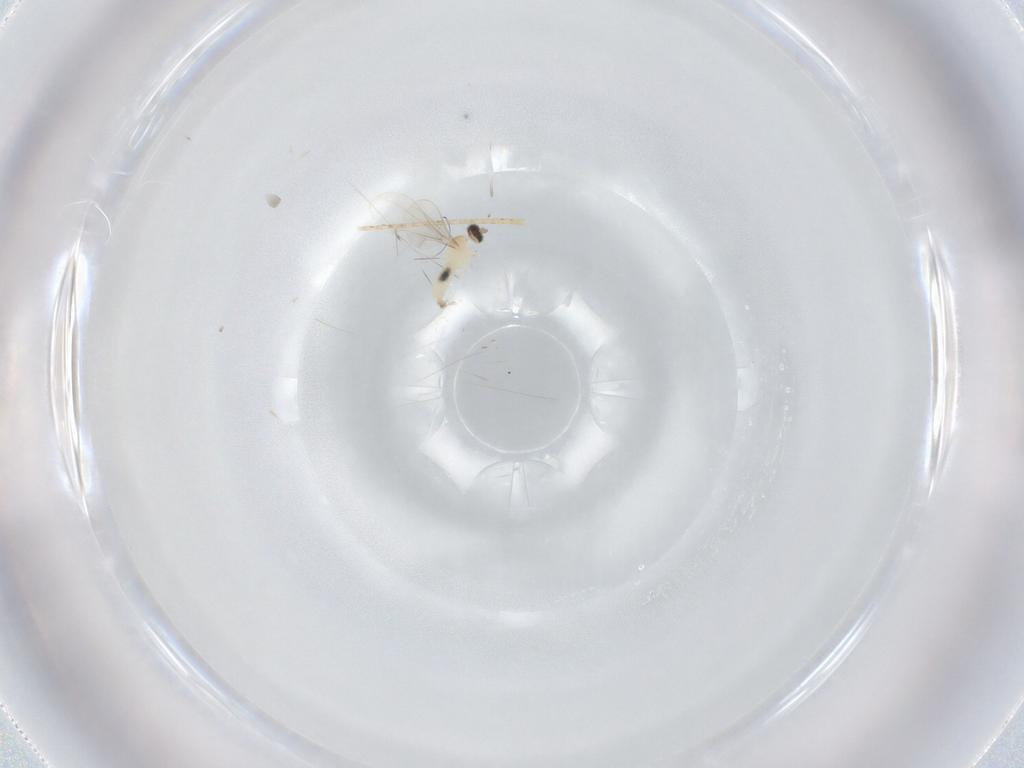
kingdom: Animalia
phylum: Arthropoda
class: Insecta
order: Diptera
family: Cecidomyiidae
